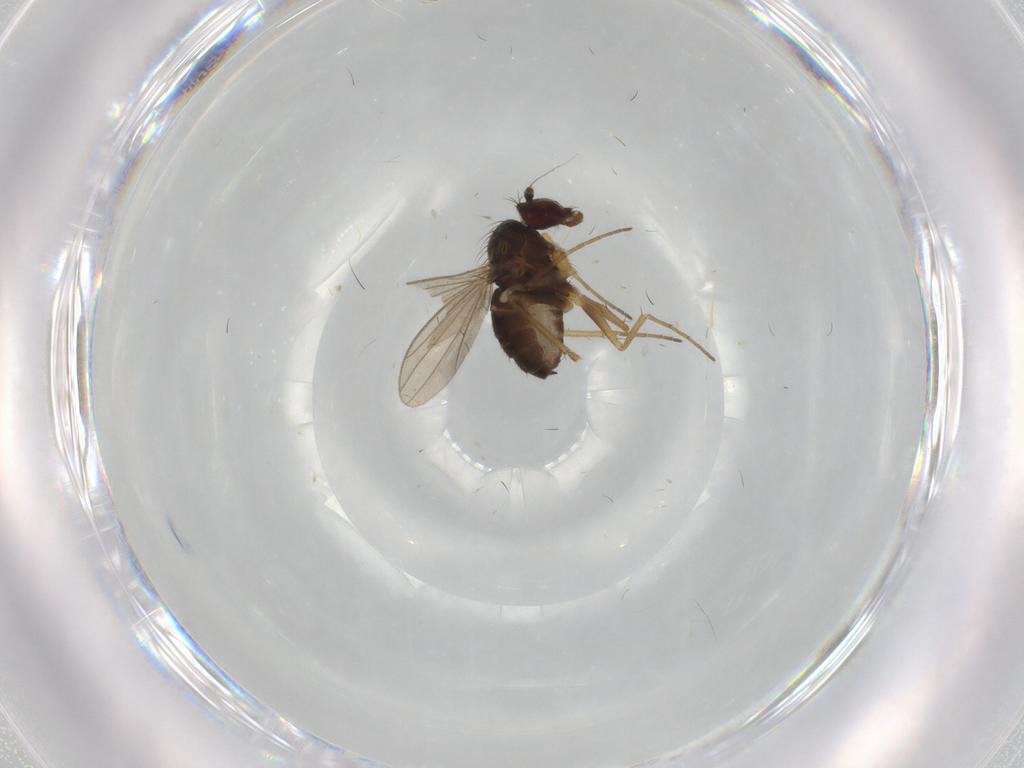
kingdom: Animalia
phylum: Arthropoda
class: Insecta
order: Diptera
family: Dolichopodidae
